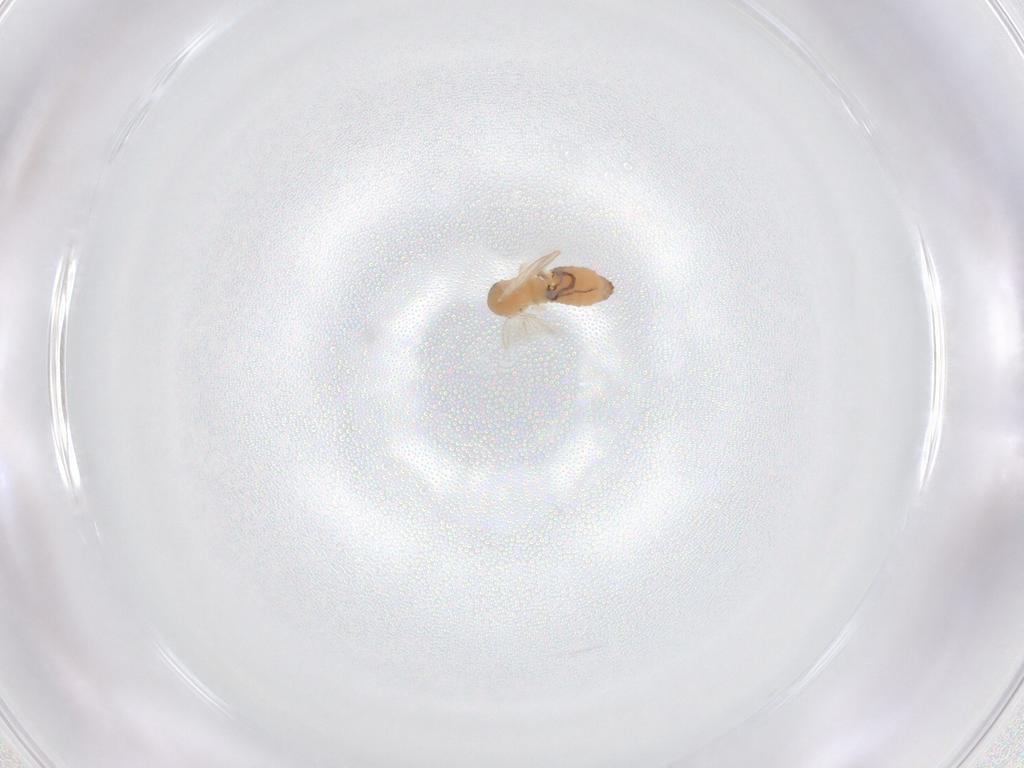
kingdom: Animalia
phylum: Arthropoda
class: Insecta
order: Diptera
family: Psychodidae
